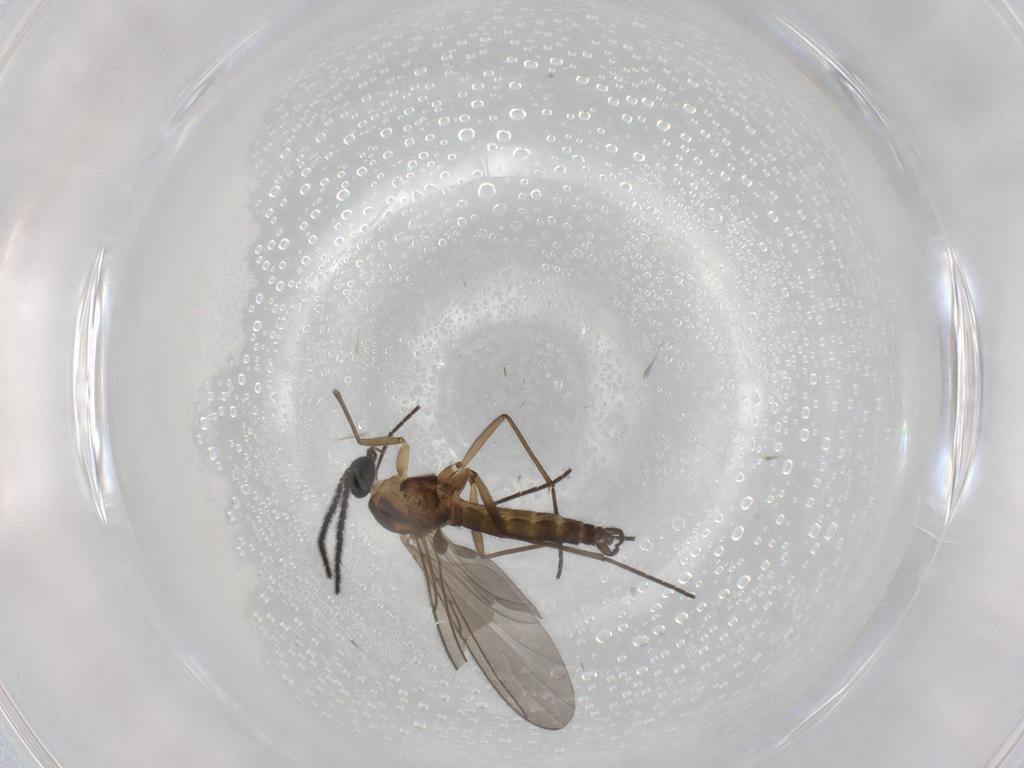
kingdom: Animalia
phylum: Arthropoda
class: Insecta
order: Diptera
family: Sciaridae
